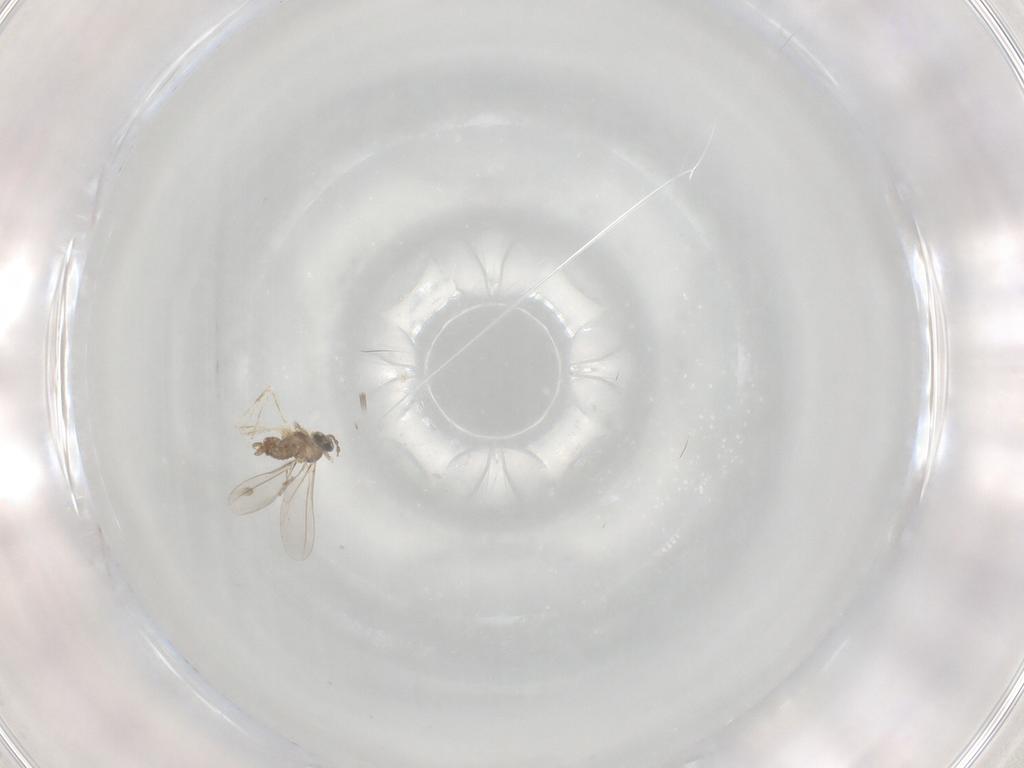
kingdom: Animalia
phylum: Arthropoda
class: Insecta
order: Diptera
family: Cecidomyiidae
